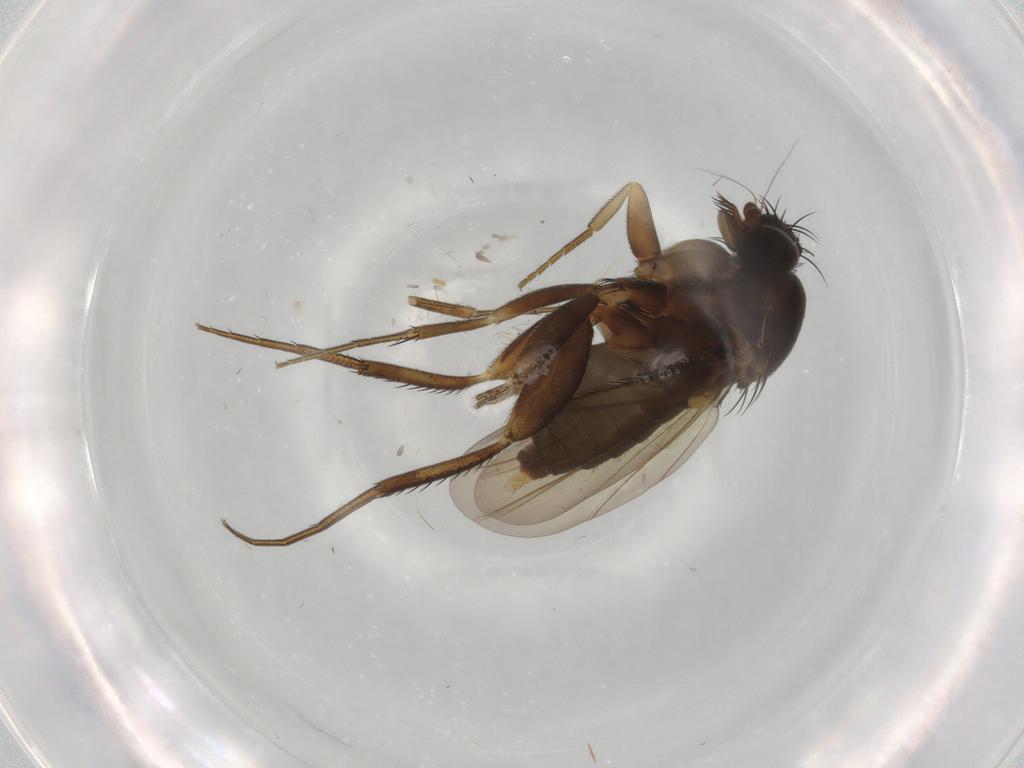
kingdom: Animalia
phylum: Arthropoda
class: Insecta
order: Diptera
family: Phoridae
